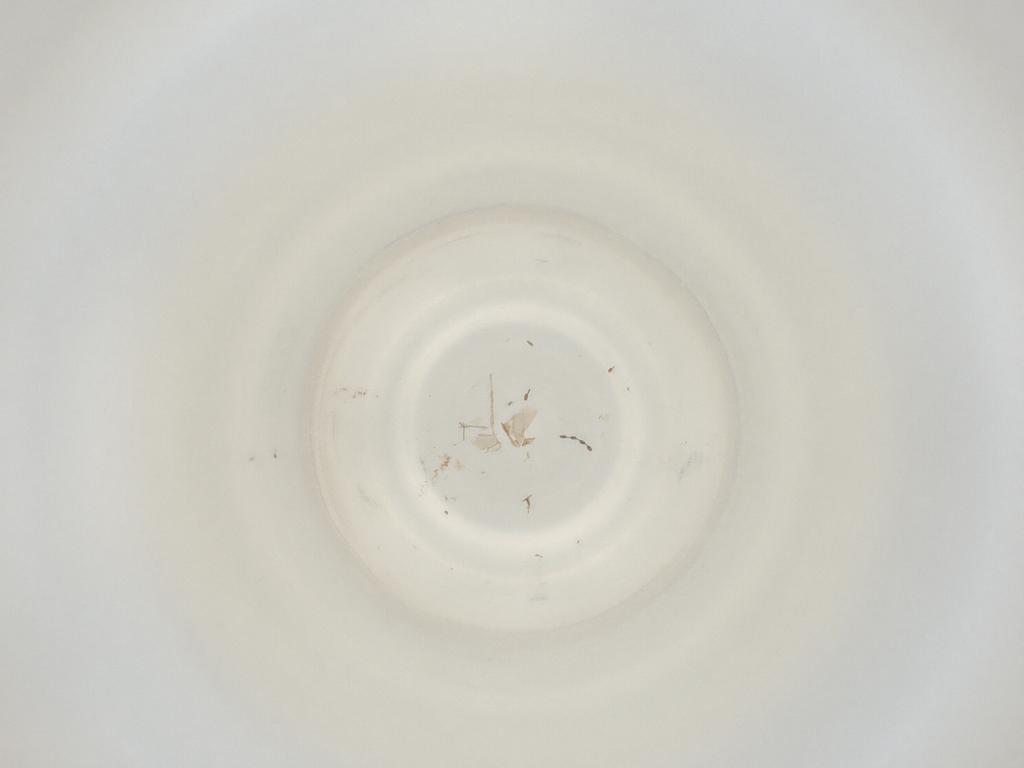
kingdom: Animalia
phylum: Arthropoda
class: Insecta
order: Diptera
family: Cecidomyiidae
